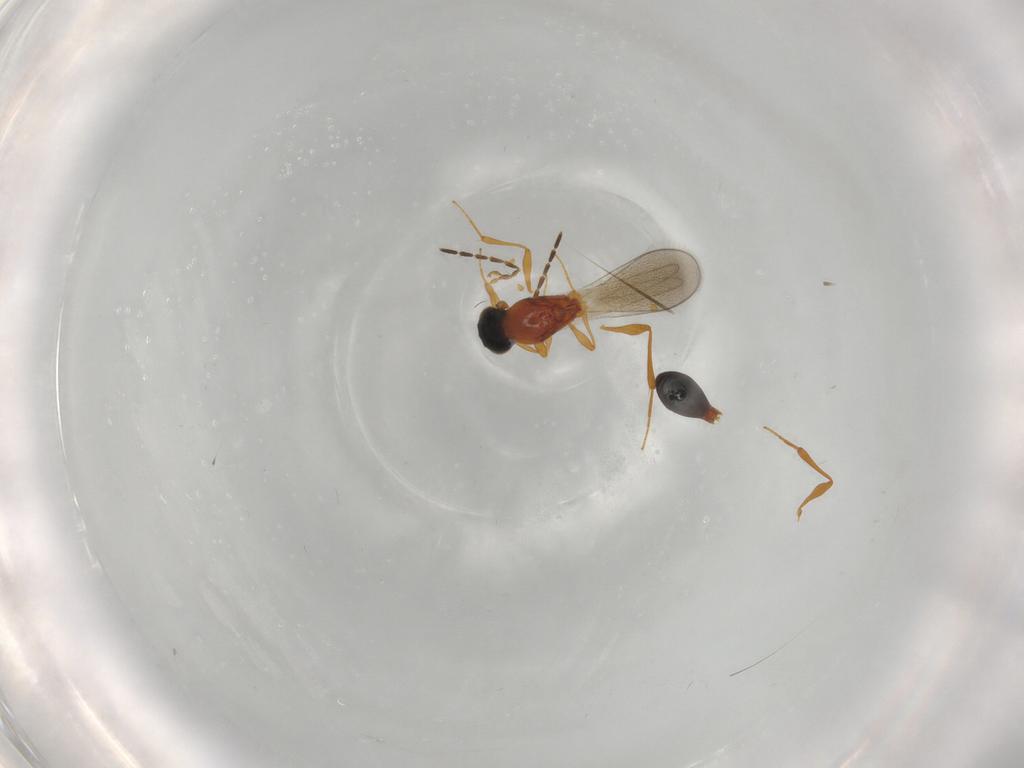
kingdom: Animalia
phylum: Arthropoda
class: Insecta
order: Hymenoptera
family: Platygastridae
